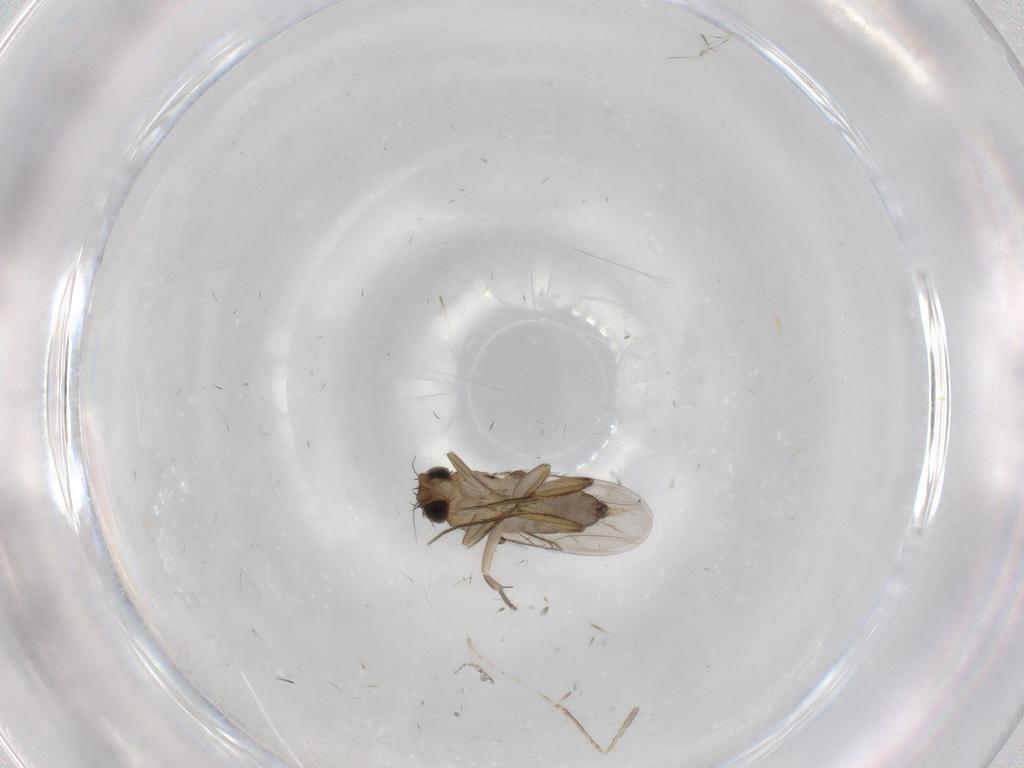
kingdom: Animalia
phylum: Arthropoda
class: Insecta
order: Diptera
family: Phoridae
